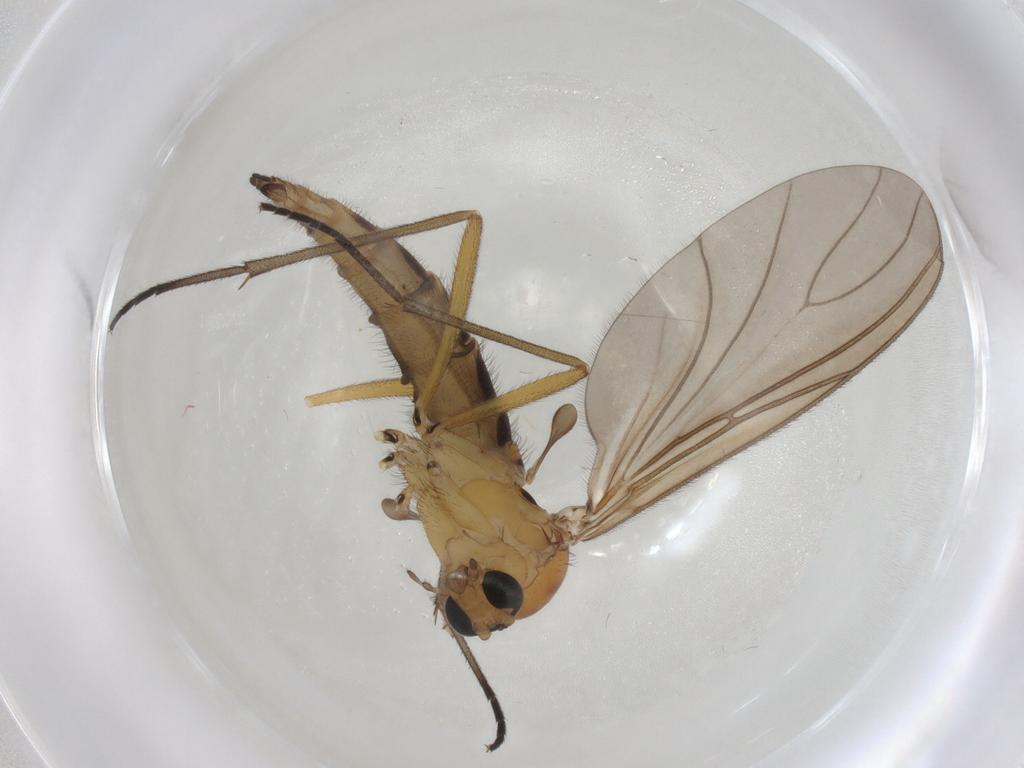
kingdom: Animalia
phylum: Arthropoda
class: Insecta
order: Diptera
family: Sciaridae
